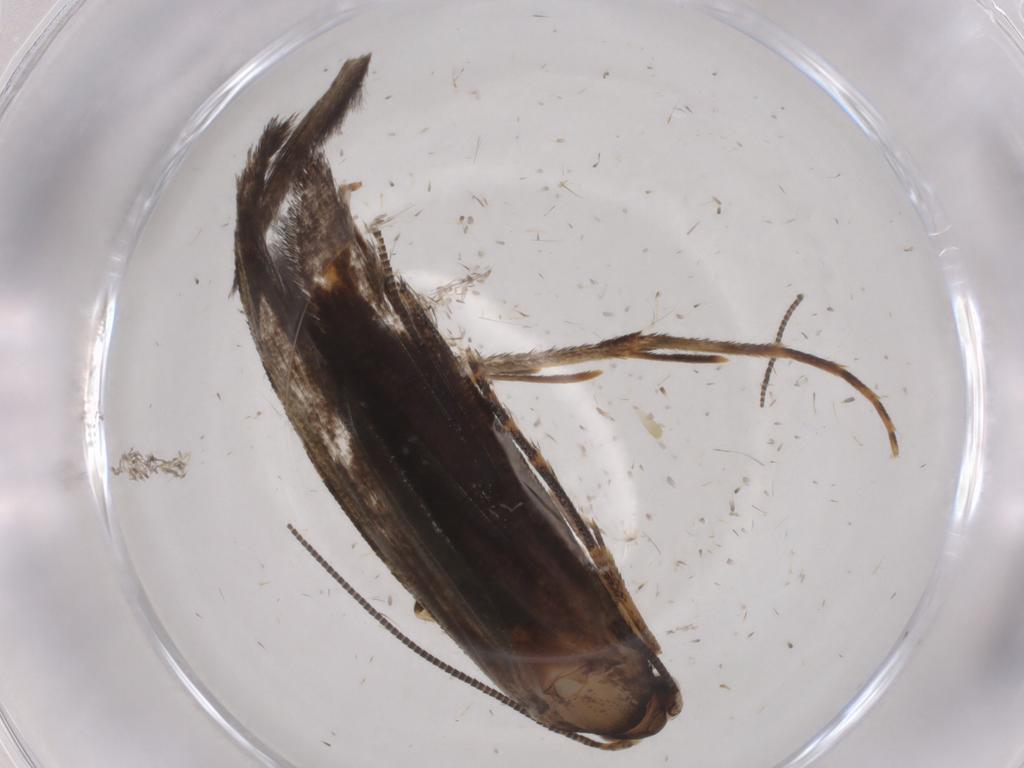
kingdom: Animalia
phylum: Arthropoda
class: Insecta
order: Lepidoptera
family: Tineidae
